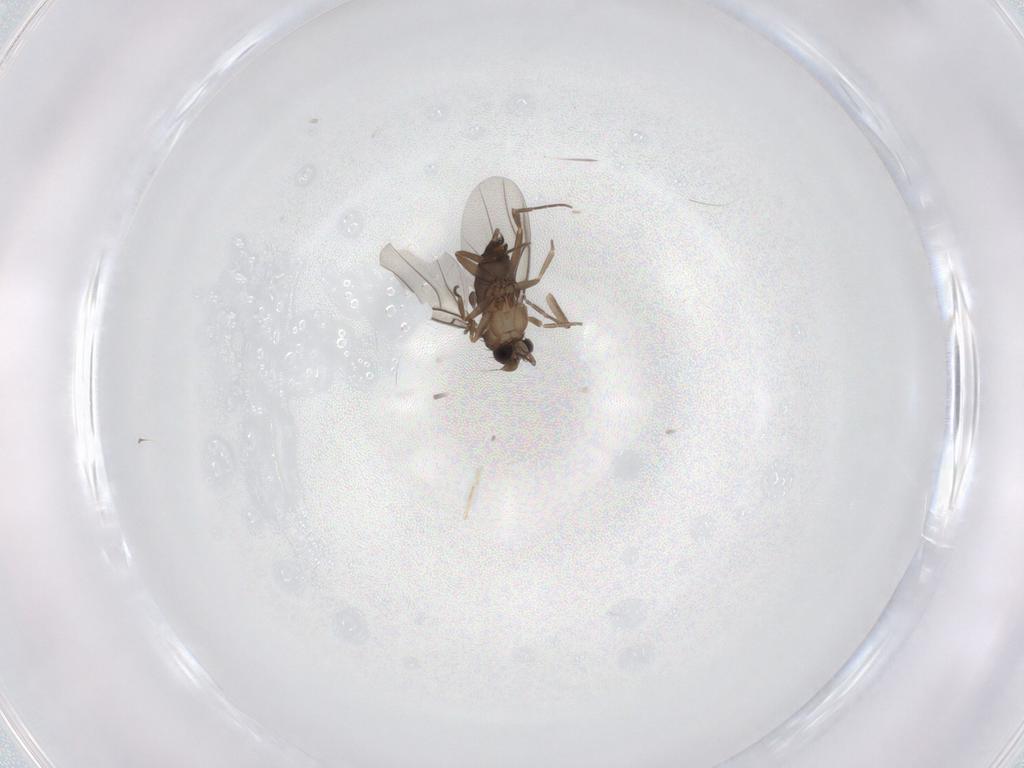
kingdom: Animalia
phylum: Arthropoda
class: Insecta
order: Diptera
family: Phoridae
